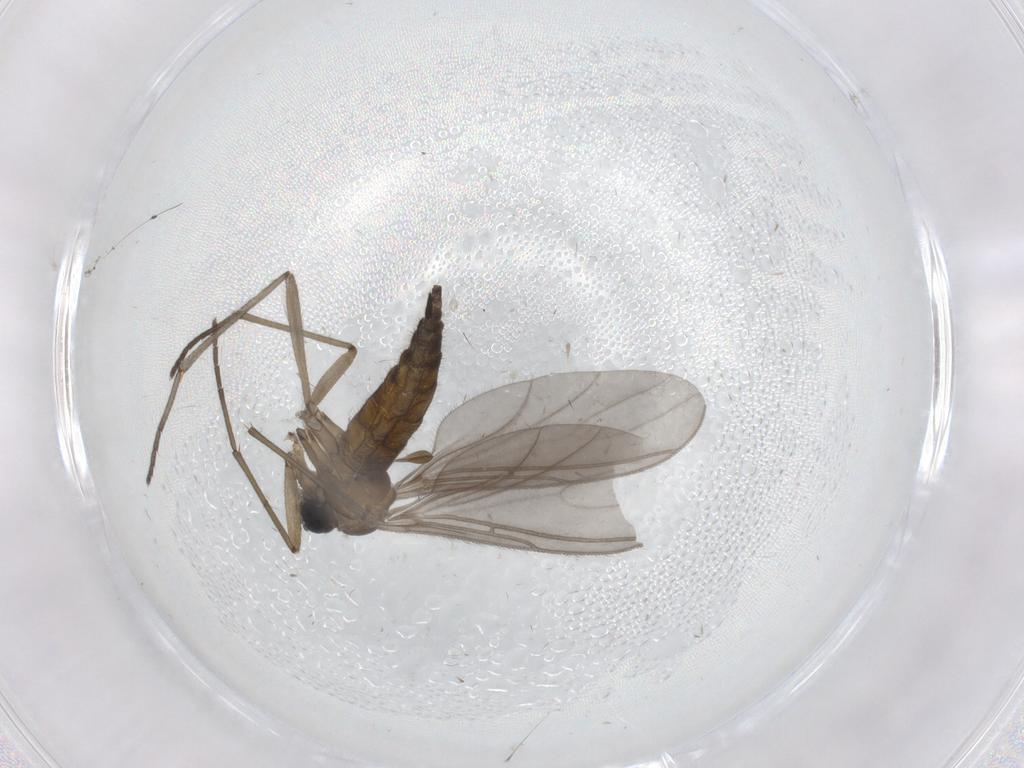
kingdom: Animalia
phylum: Arthropoda
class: Insecta
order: Diptera
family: Sciaridae
